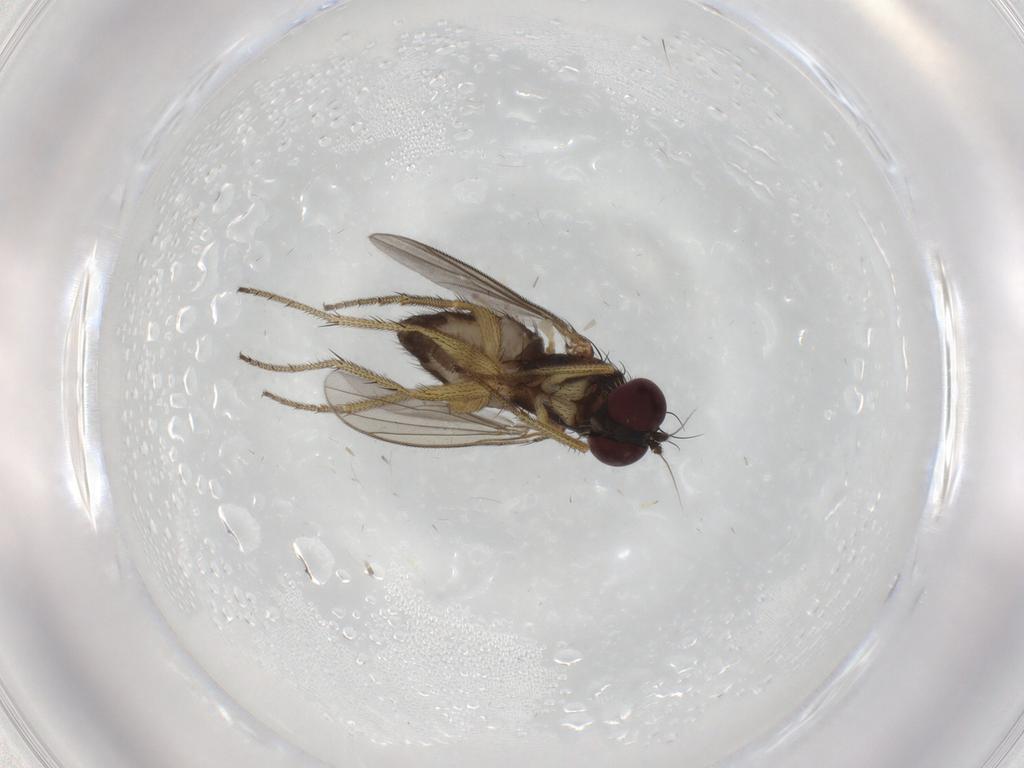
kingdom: Animalia
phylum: Arthropoda
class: Insecta
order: Diptera
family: Dolichopodidae
